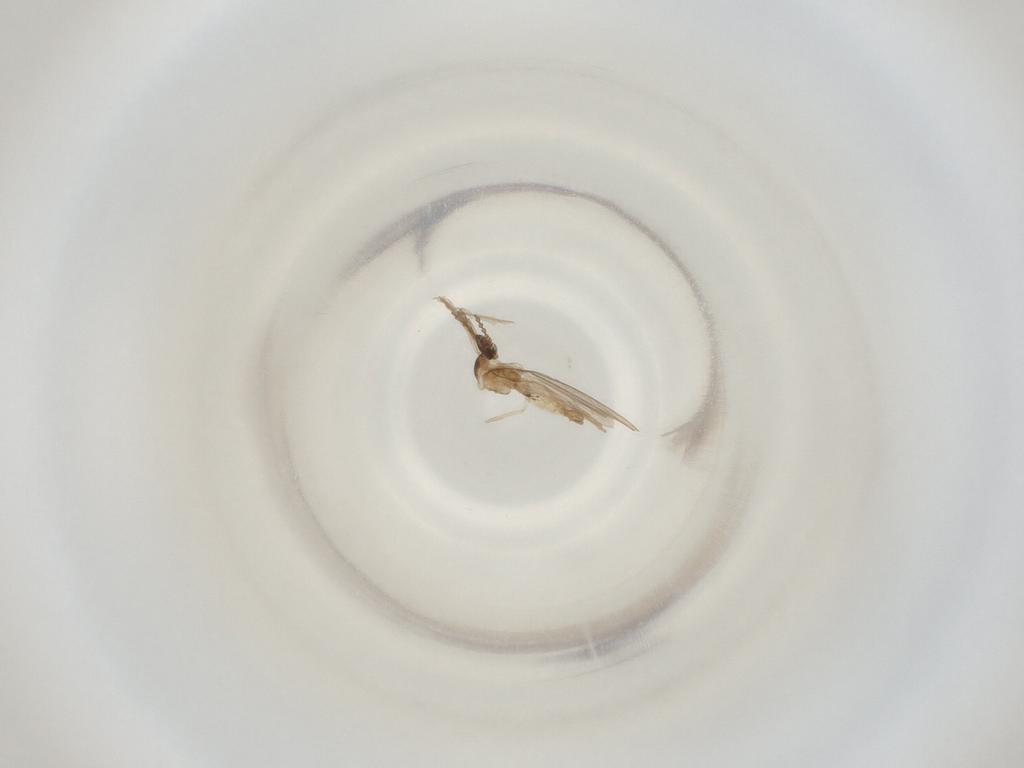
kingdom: Animalia
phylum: Arthropoda
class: Insecta
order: Diptera
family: Cecidomyiidae
